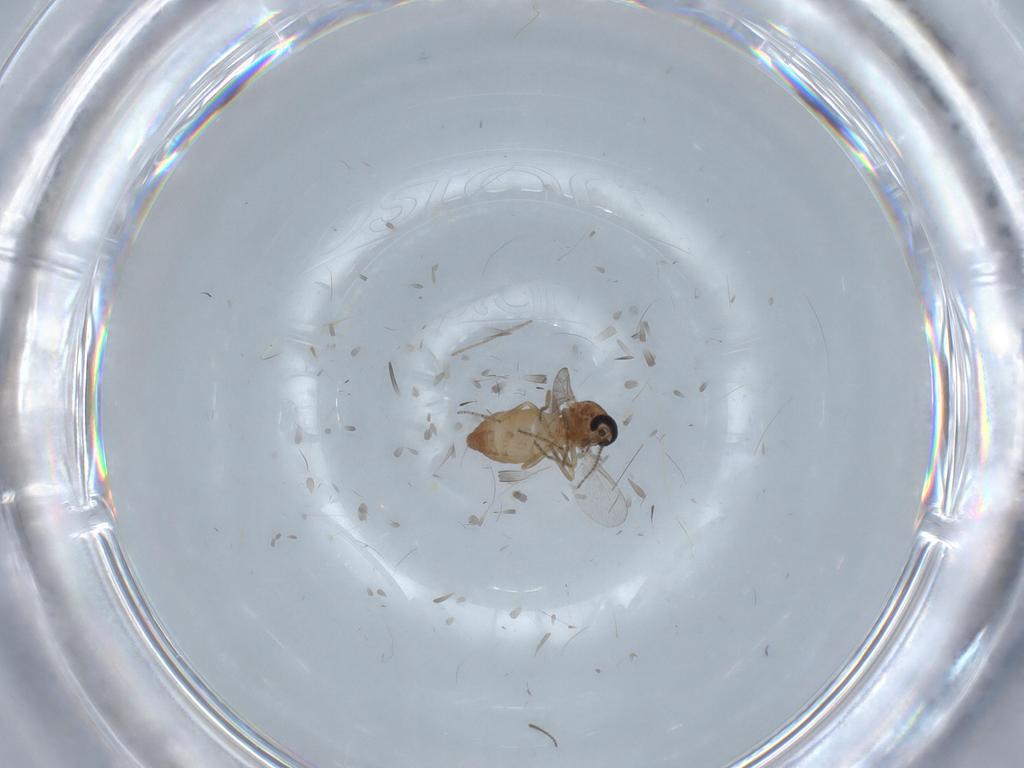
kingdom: Animalia
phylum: Arthropoda
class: Insecta
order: Diptera
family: Ceratopogonidae
